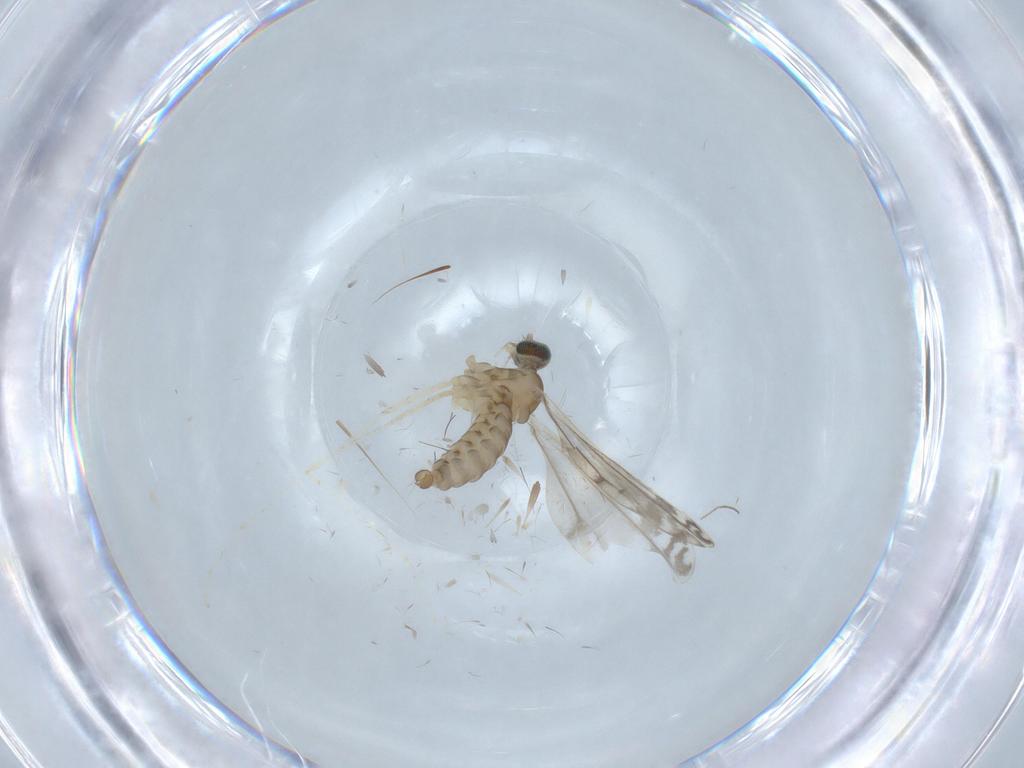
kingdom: Animalia
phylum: Arthropoda
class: Insecta
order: Diptera
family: Cecidomyiidae
